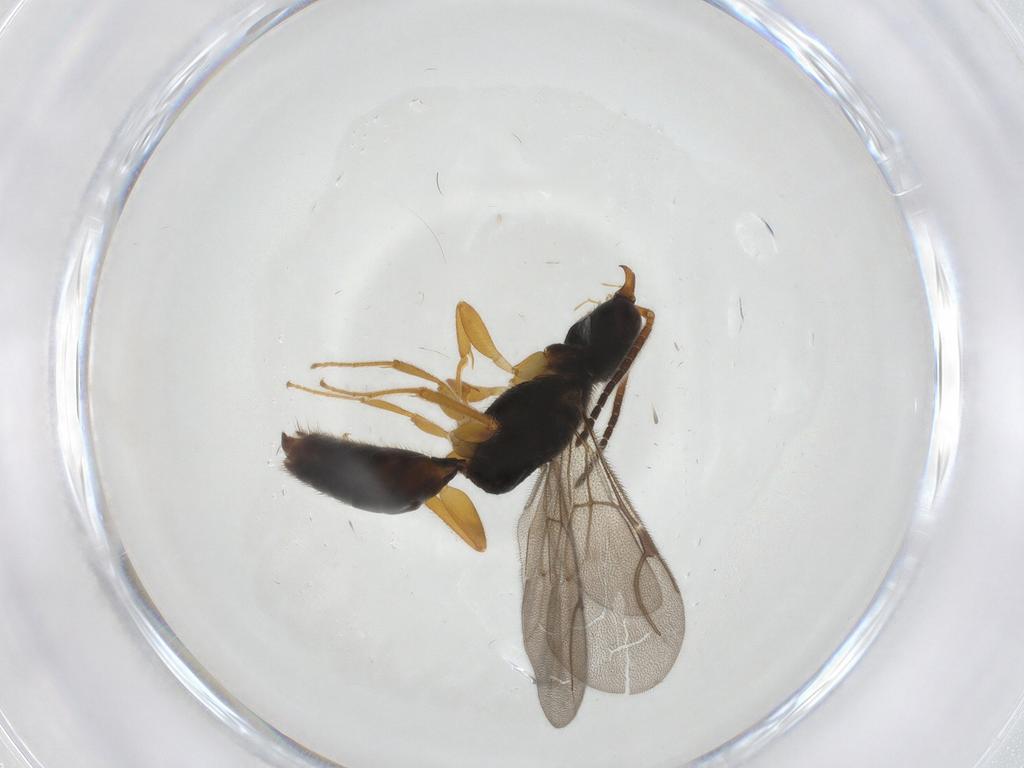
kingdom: Animalia
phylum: Arthropoda
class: Insecta
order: Hymenoptera
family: Bethylidae
